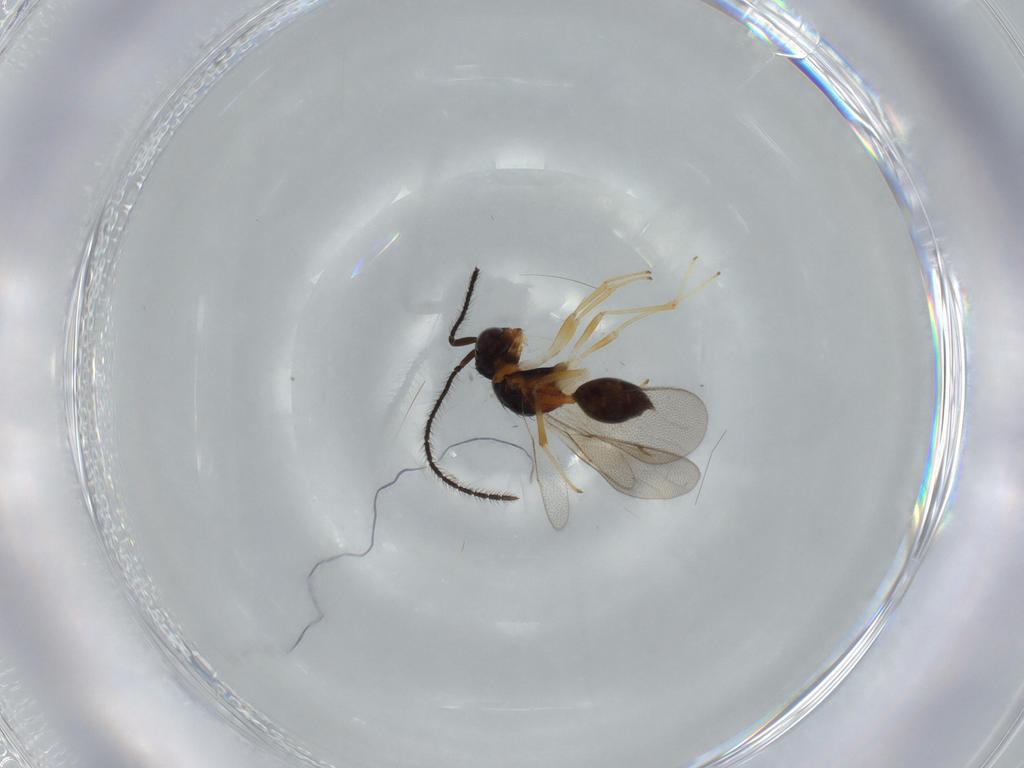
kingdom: Animalia
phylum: Arthropoda
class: Insecta
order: Hymenoptera
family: Diparidae
